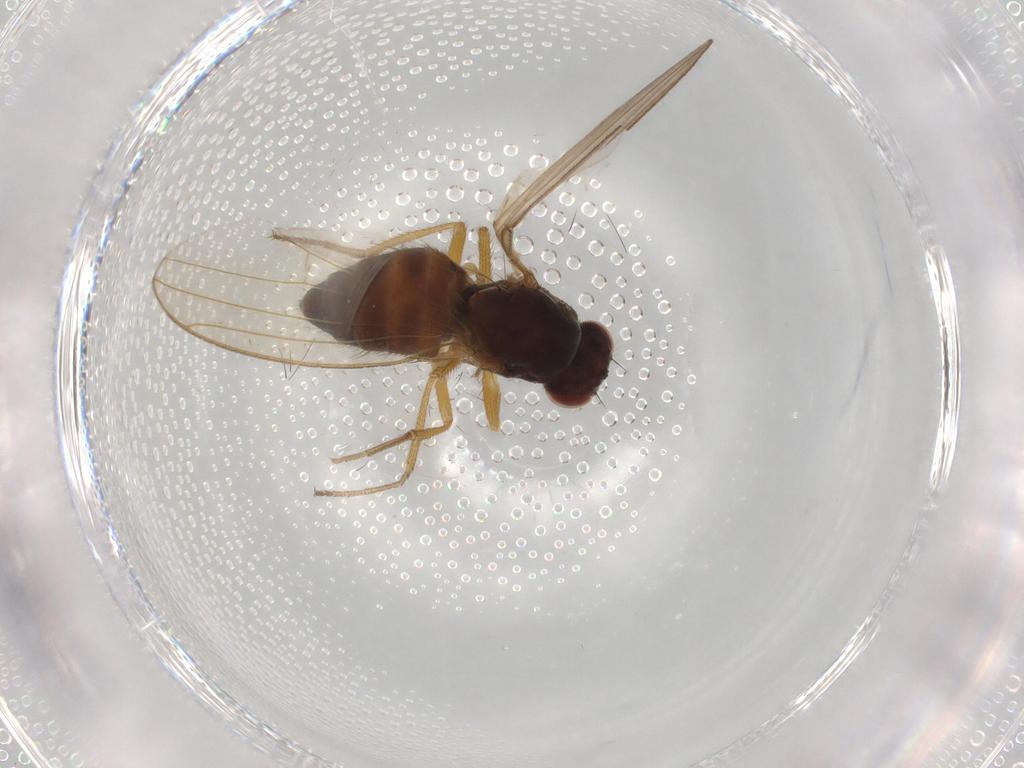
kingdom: Animalia
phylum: Arthropoda
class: Insecta
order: Diptera
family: Drosophilidae
